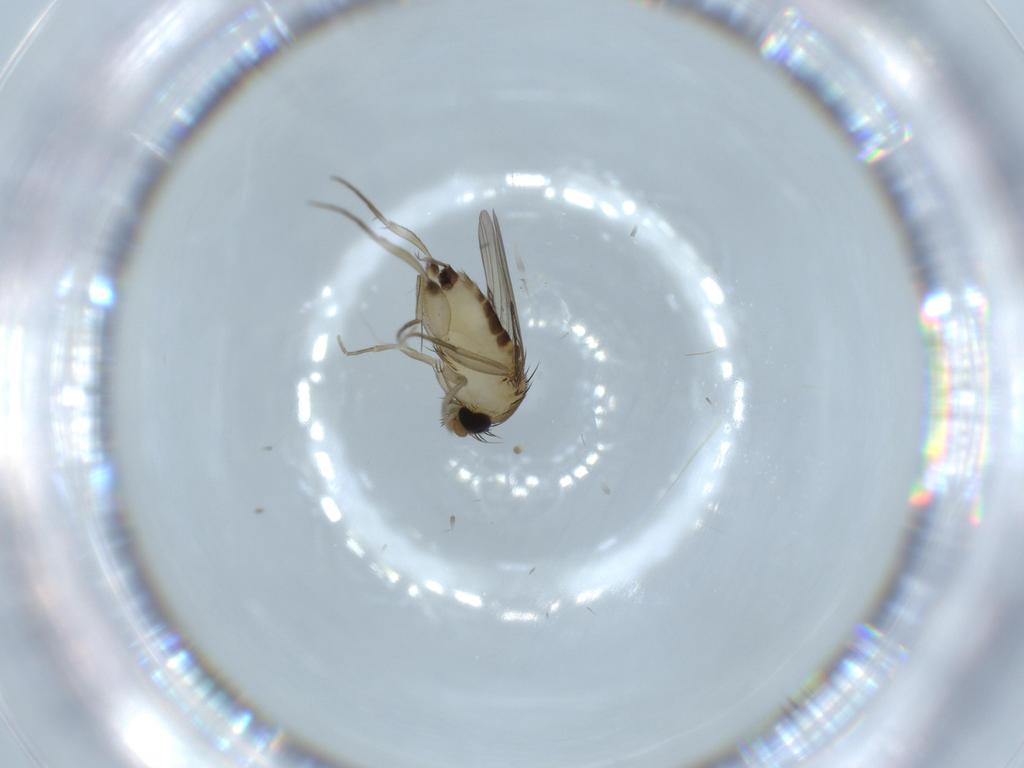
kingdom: Animalia
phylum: Arthropoda
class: Insecta
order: Diptera
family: Phoridae
